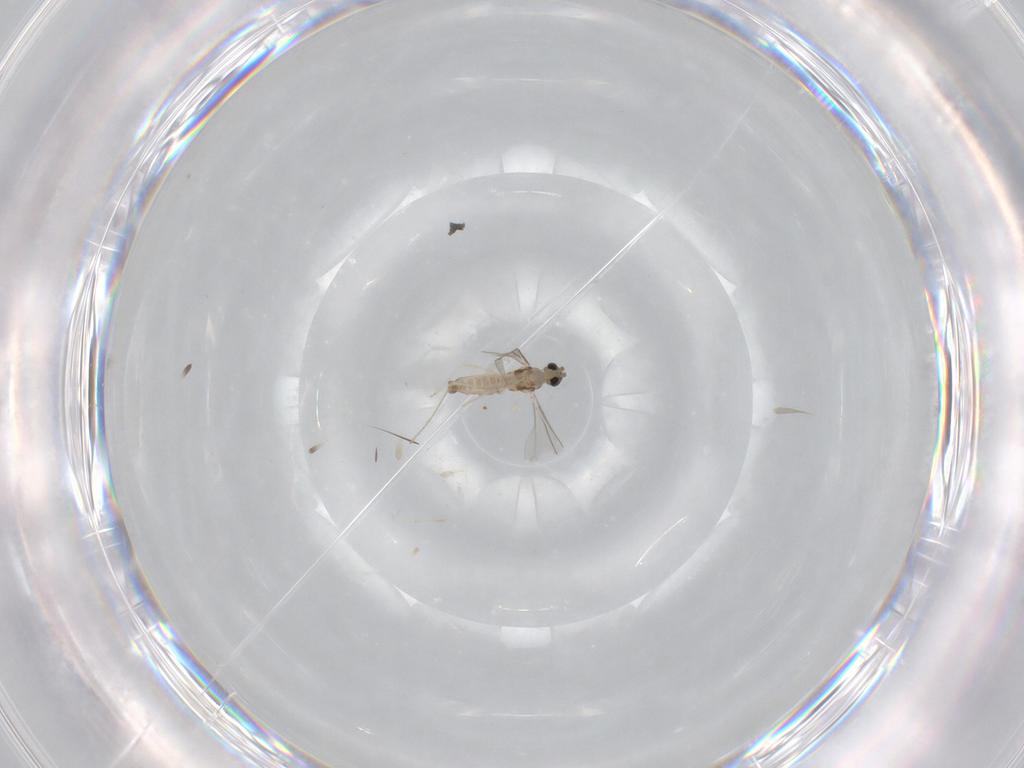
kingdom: Animalia
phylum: Arthropoda
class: Insecta
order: Diptera
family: Cecidomyiidae
